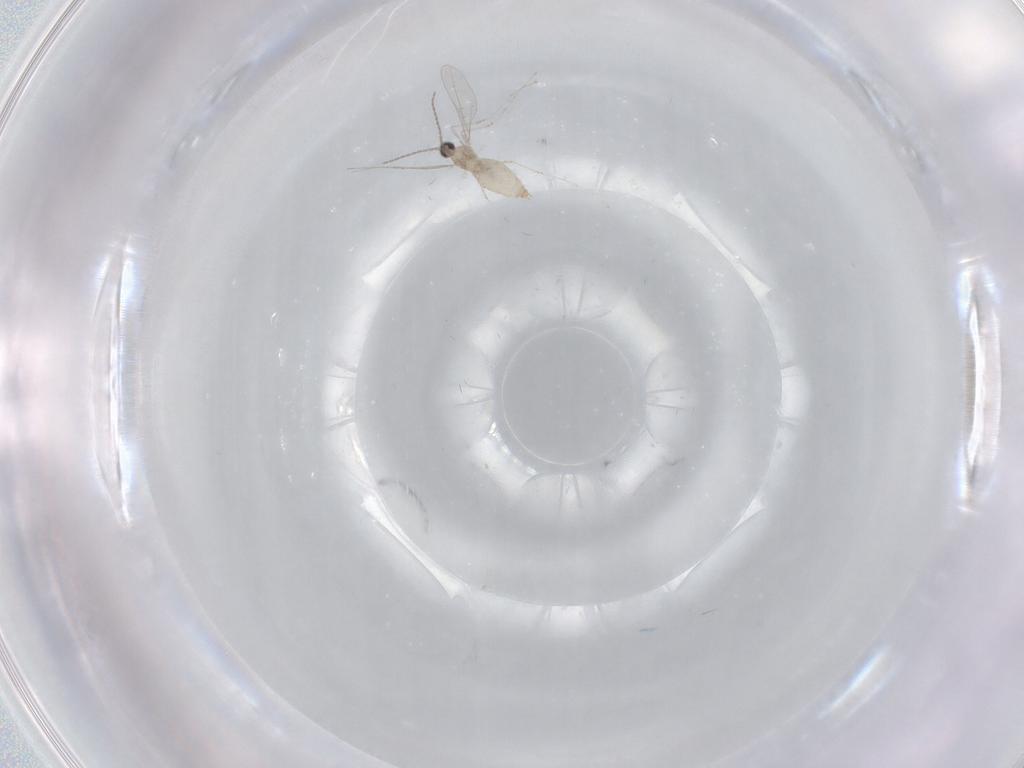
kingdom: Animalia
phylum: Arthropoda
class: Insecta
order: Diptera
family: Cecidomyiidae
